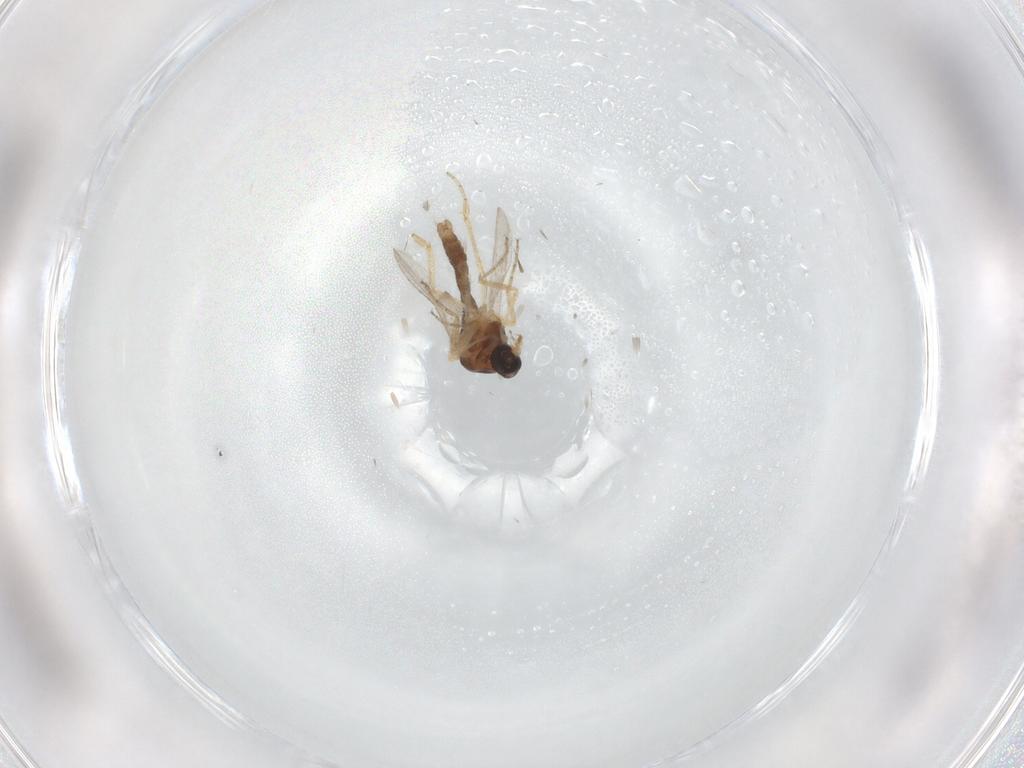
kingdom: Animalia
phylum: Arthropoda
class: Insecta
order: Diptera
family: Ceratopogonidae
